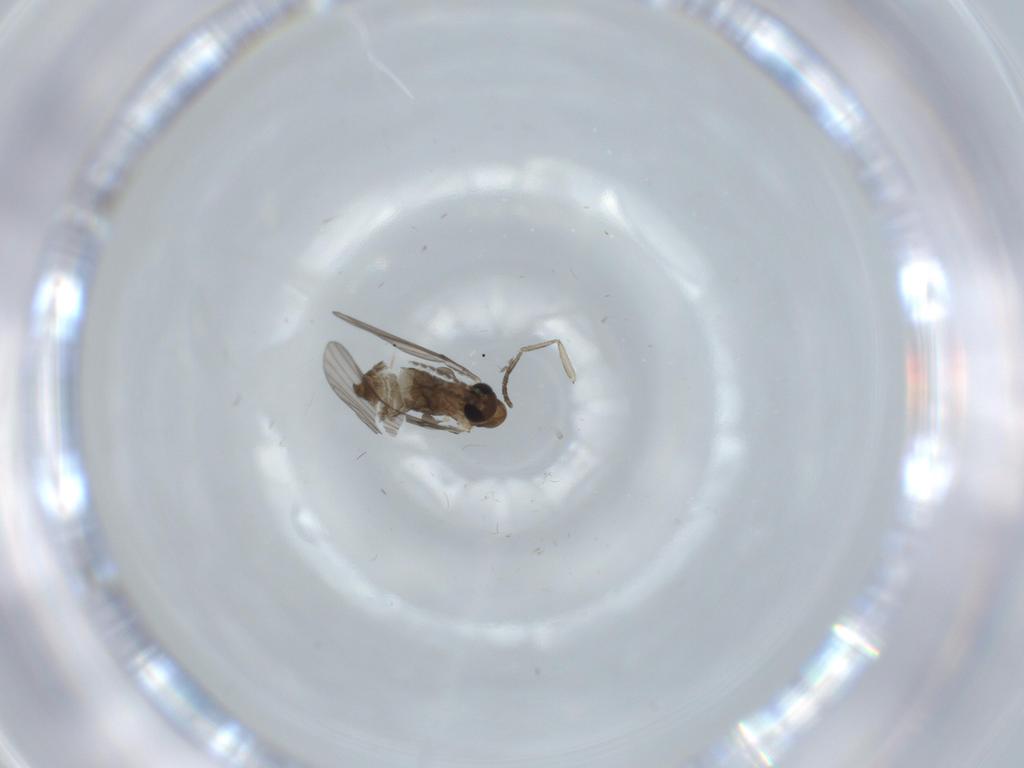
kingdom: Animalia
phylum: Arthropoda
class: Insecta
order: Diptera
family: Psychodidae
